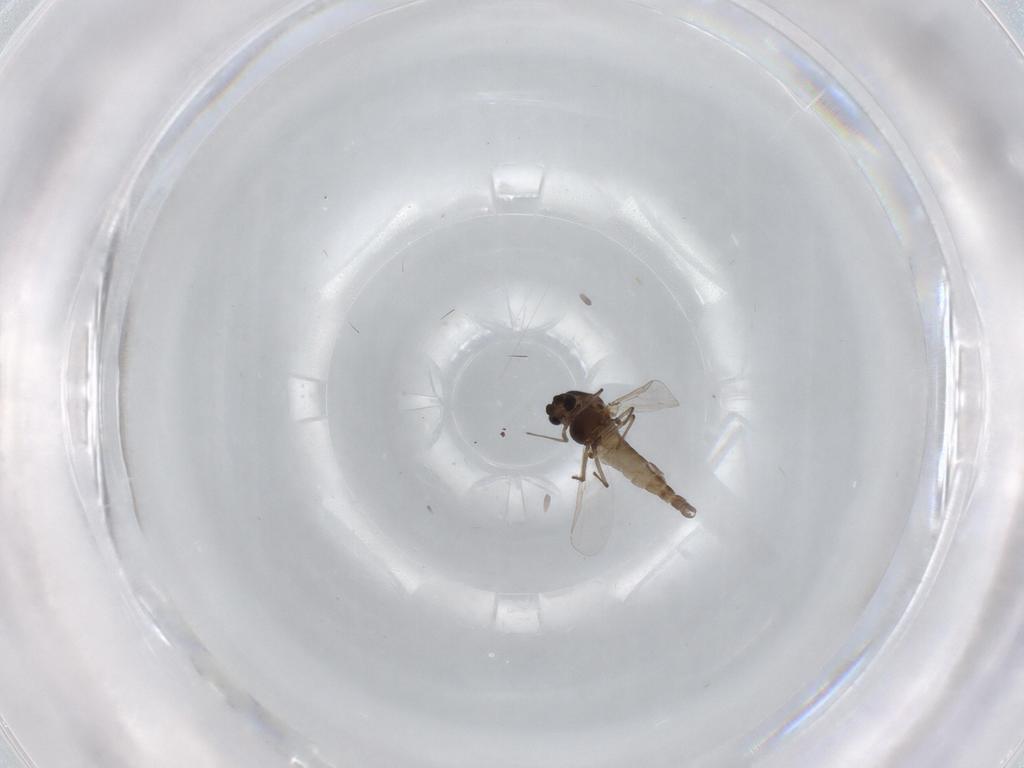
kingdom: Animalia
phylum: Arthropoda
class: Insecta
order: Diptera
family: Chironomidae
